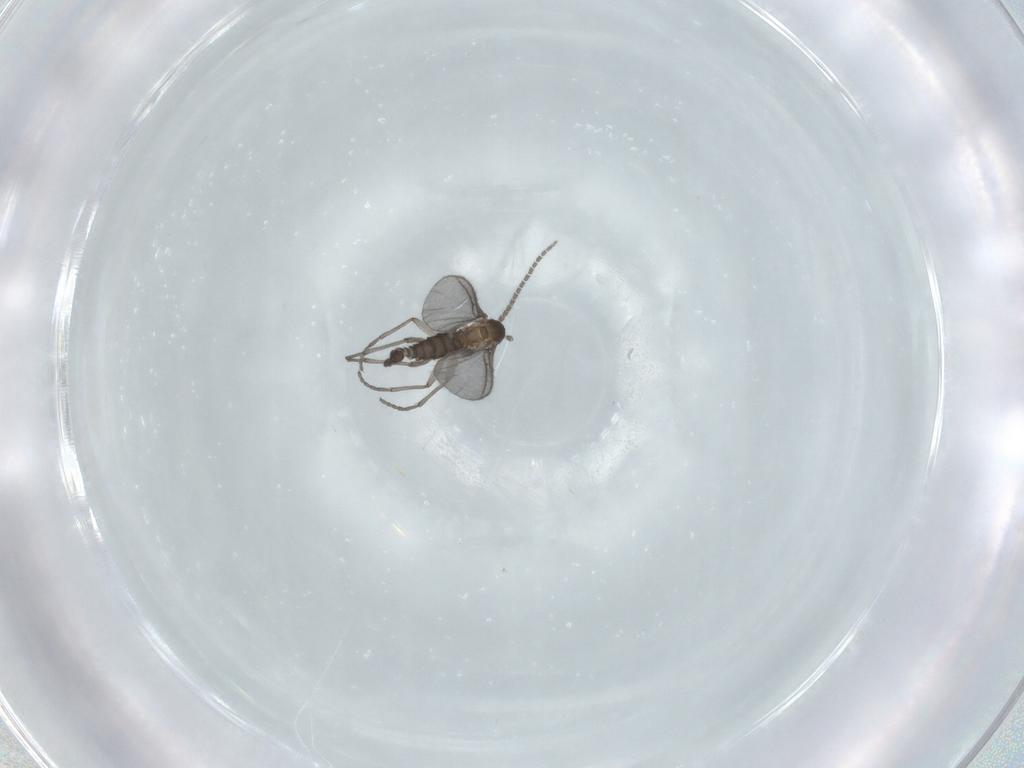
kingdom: Animalia
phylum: Arthropoda
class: Insecta
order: Diptera
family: Sciaridae
